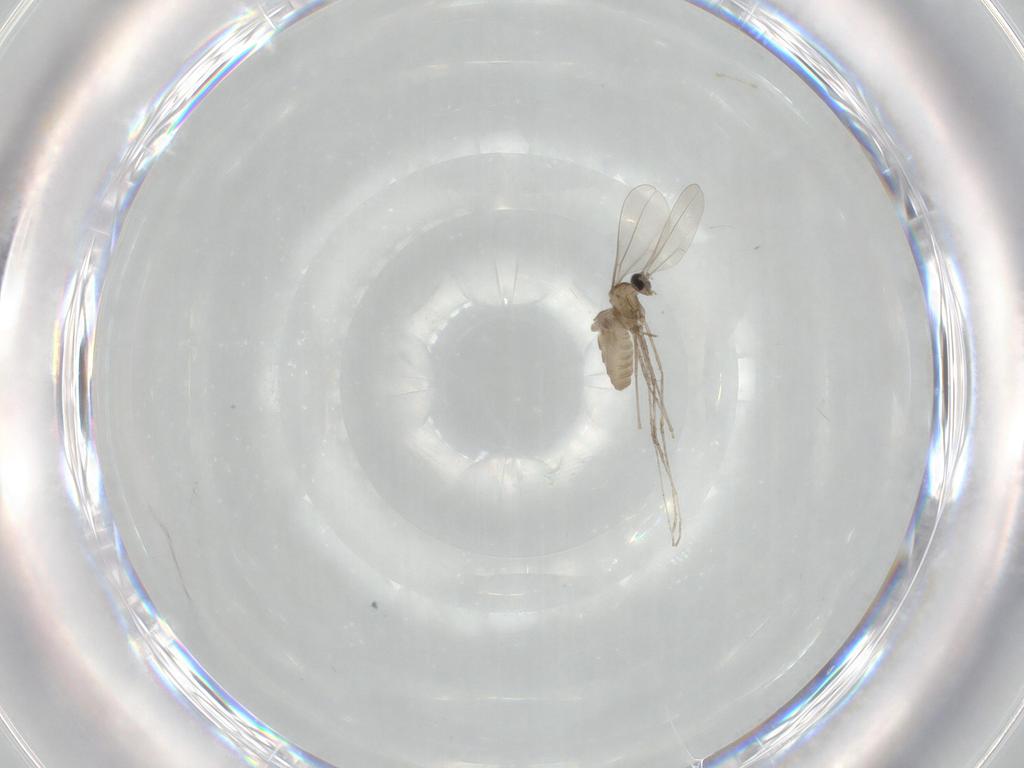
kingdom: Animalia
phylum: Arthropoda
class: Insecta
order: Diptera
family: Cecidomyiidae
